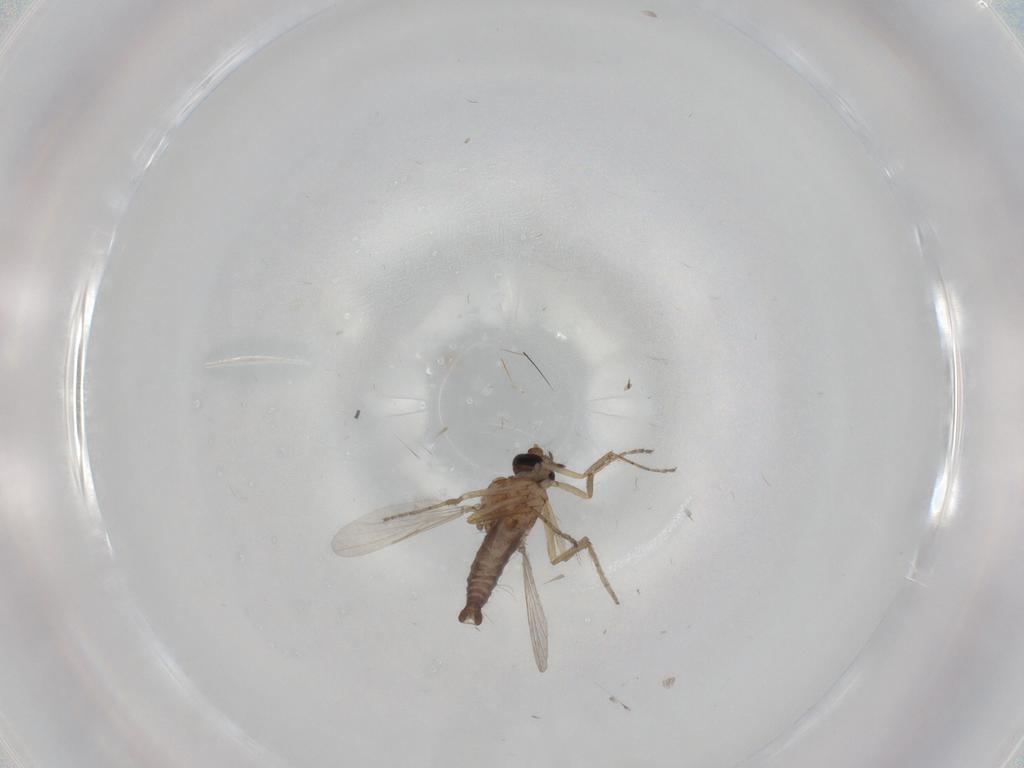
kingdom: Animalia
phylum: Arthropoda
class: Insecta
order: Diptera
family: Ceratopogonidae
